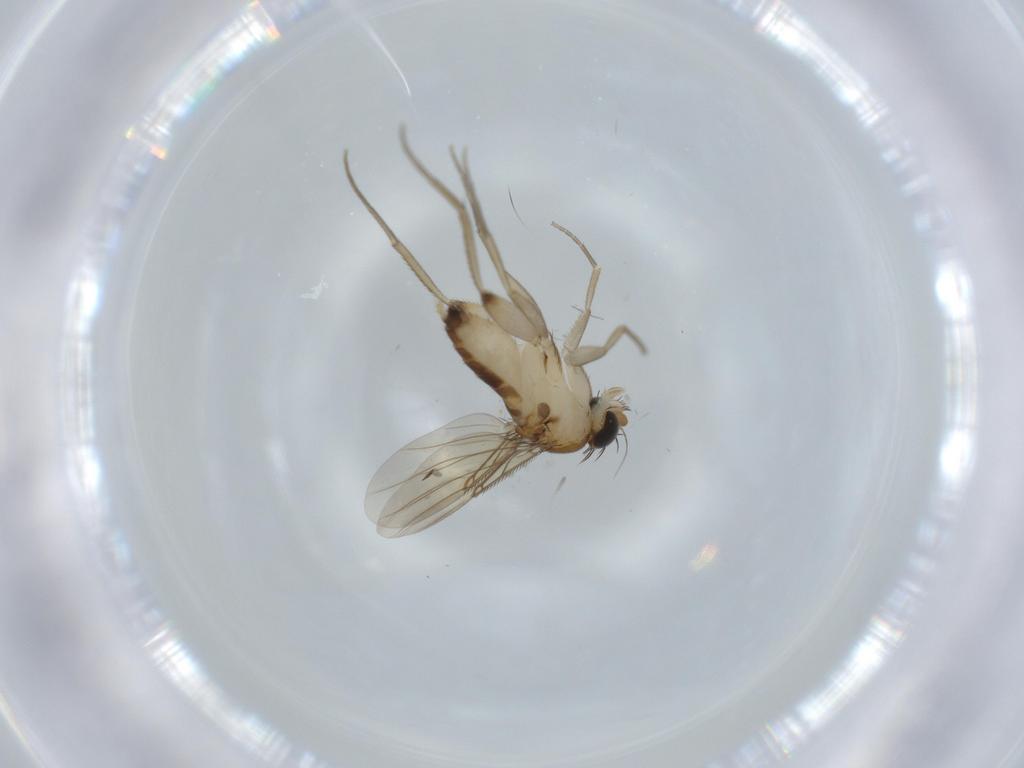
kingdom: Animalia
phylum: Arthropoda
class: Insecta
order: Diptera
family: Phoridae
